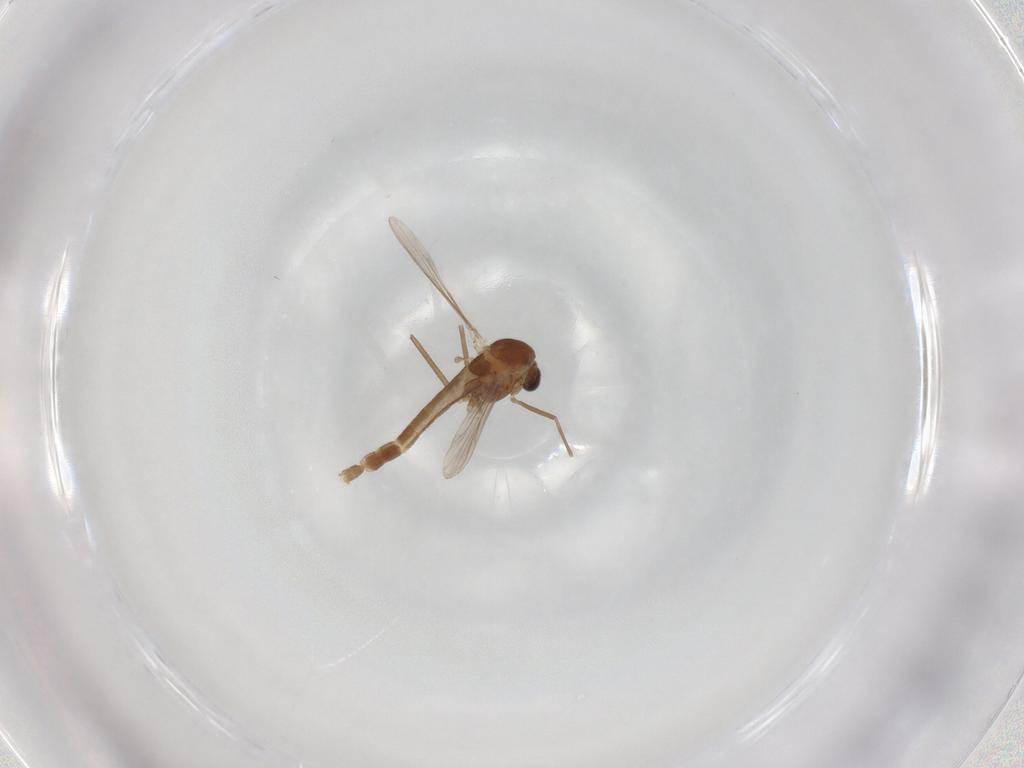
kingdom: Animalia
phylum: Arthropoda
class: Insecta
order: Diptera
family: Chironomidae
